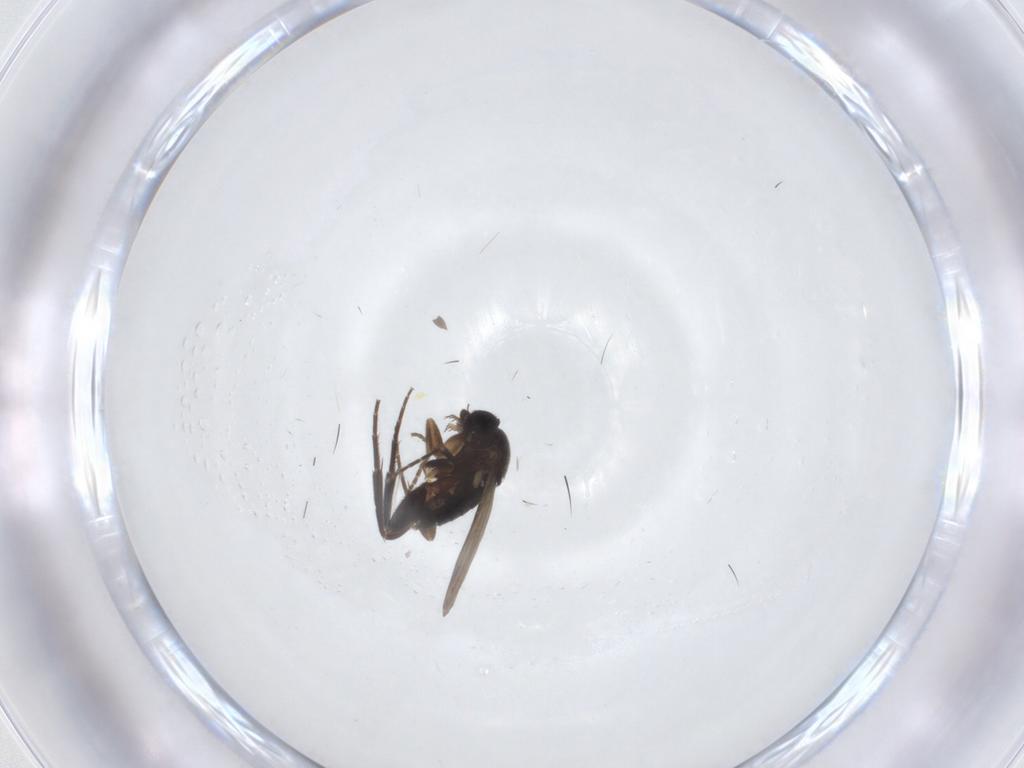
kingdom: Animalia
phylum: Arthropoda
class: Insecta
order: Diptera
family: Phoridae
